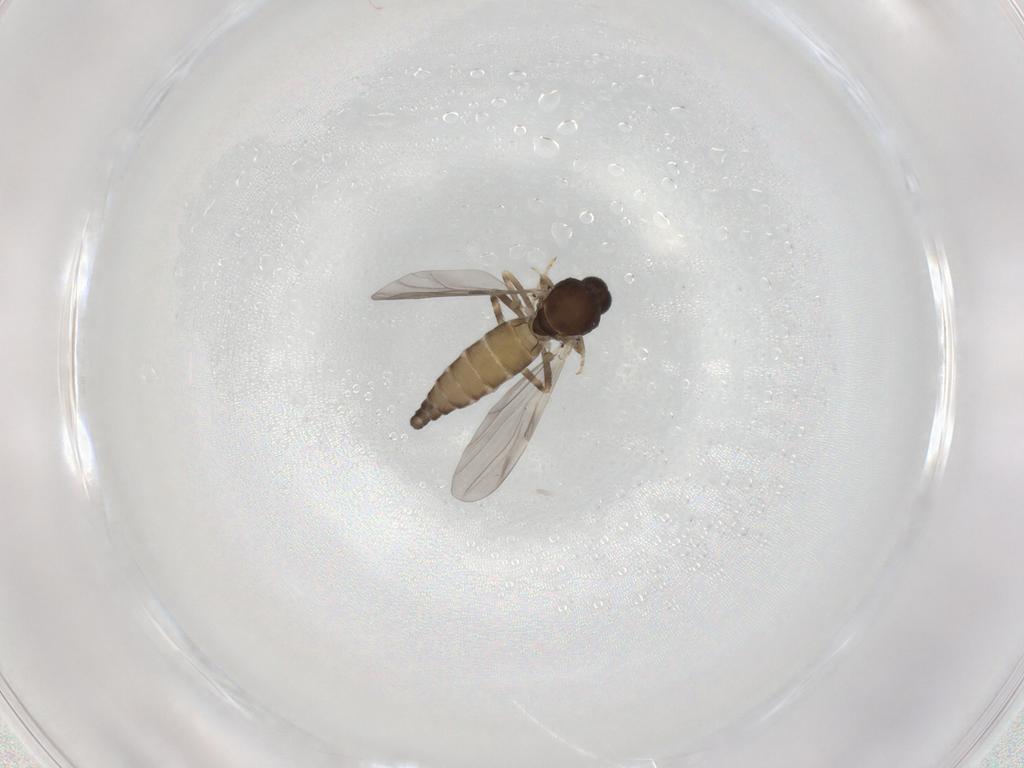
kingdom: Animalia
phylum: Arthropoda
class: Insecta
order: Diptera
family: Ceratopogonidae
